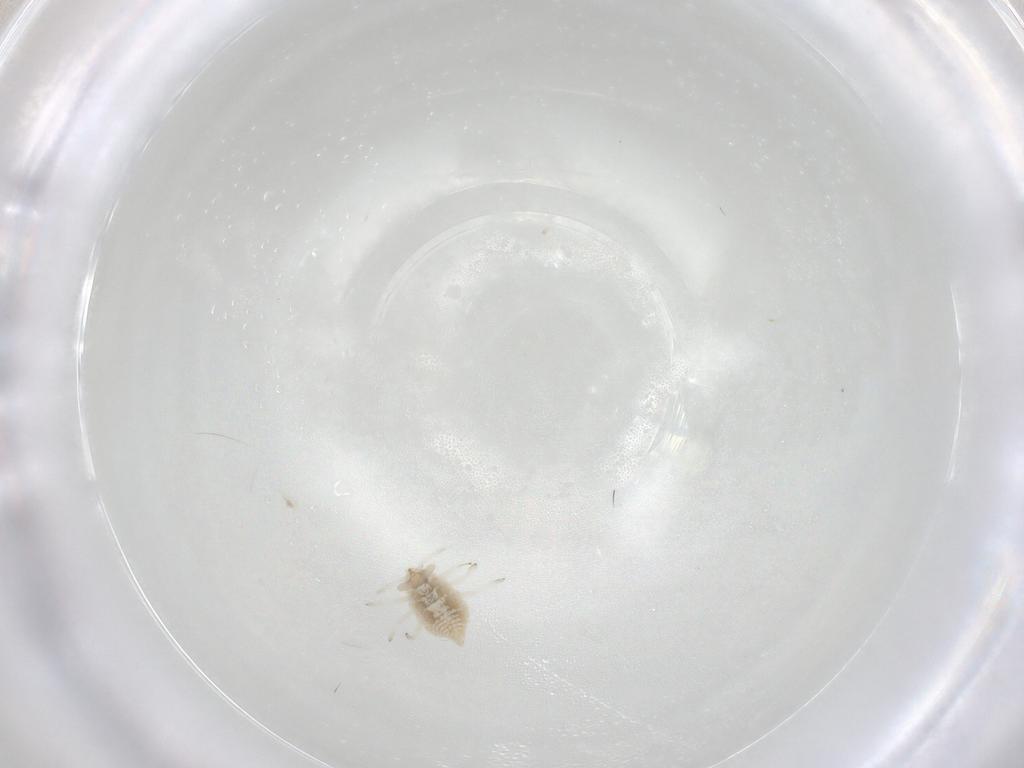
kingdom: Animalia
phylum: Arthropoda
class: Insecta
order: Neuroptera
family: Coniopterygidae
